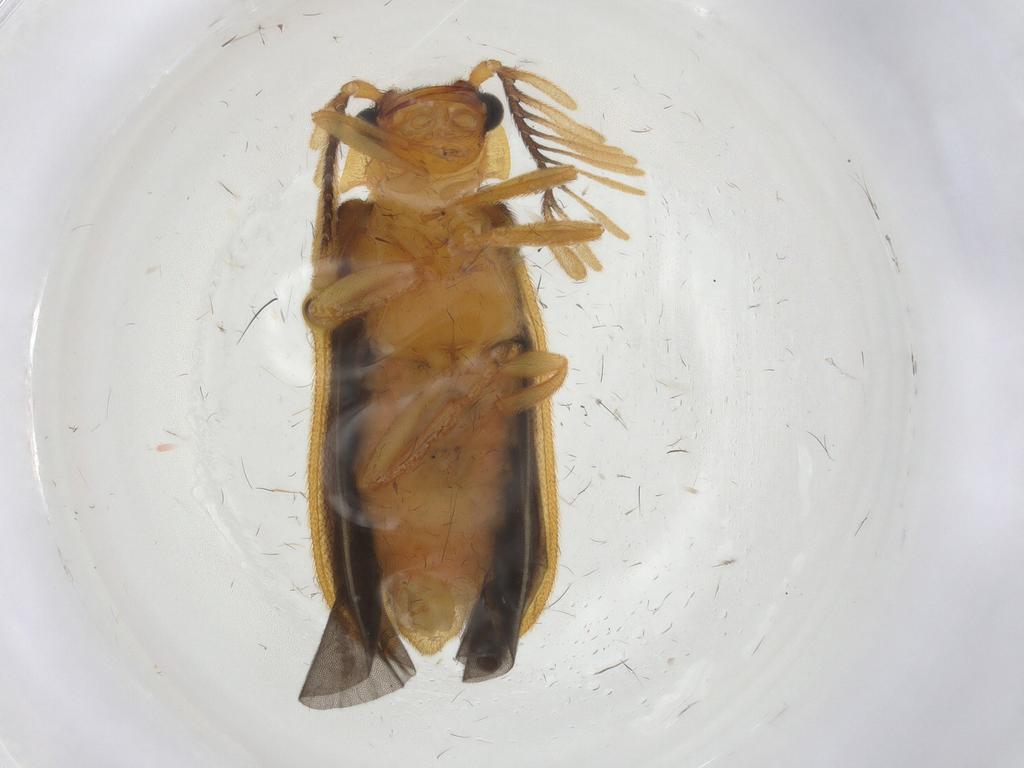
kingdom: Animalia
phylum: Arthropoda
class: Insecta
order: Coleoptera
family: Lampyridae
